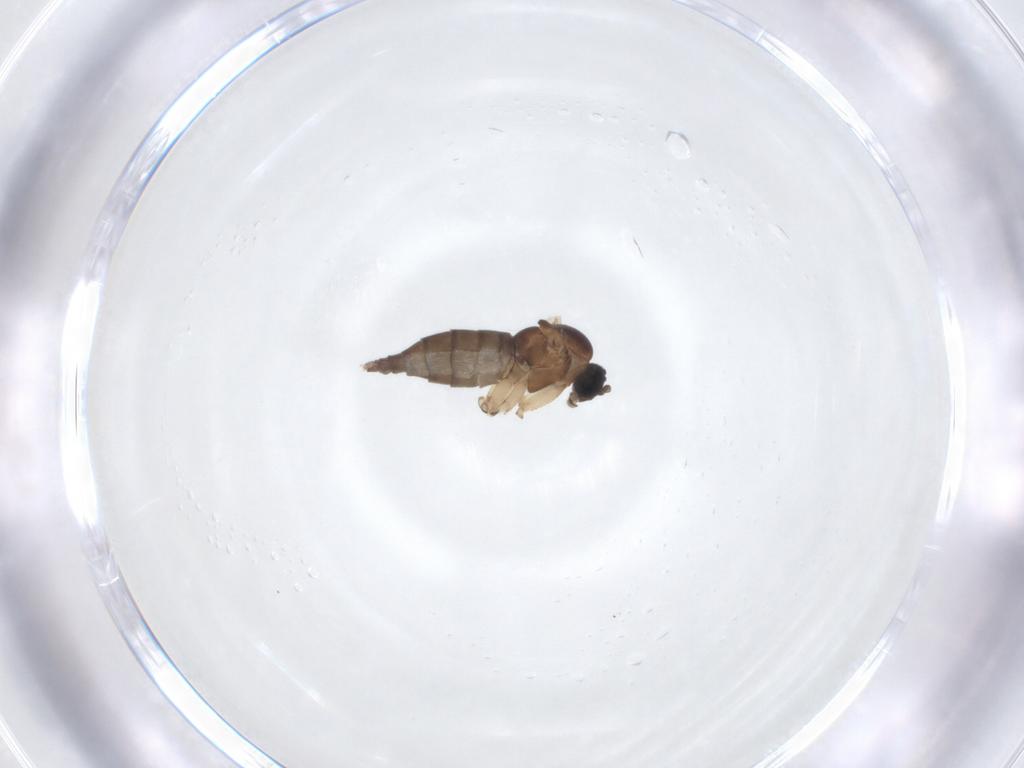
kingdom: Animalia
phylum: Arthropoda
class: Insecta
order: Diptera
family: Sciaridae
